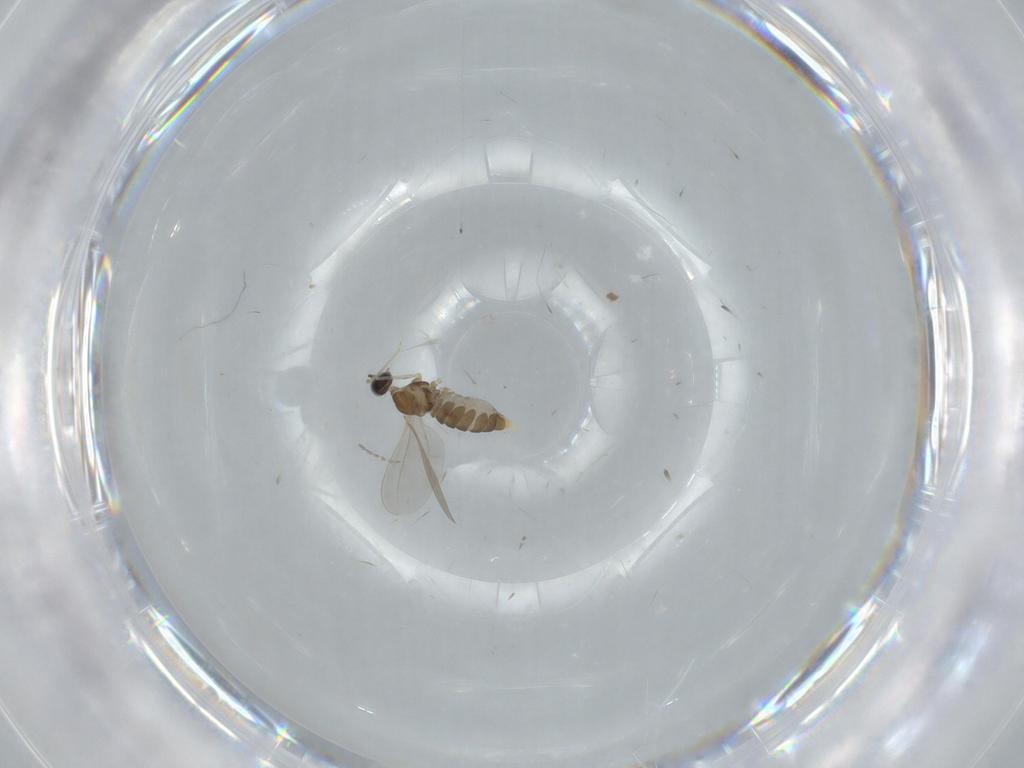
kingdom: Animalia
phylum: Arthropoda
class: Insecta
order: Diptera
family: Cecidomyiidae
